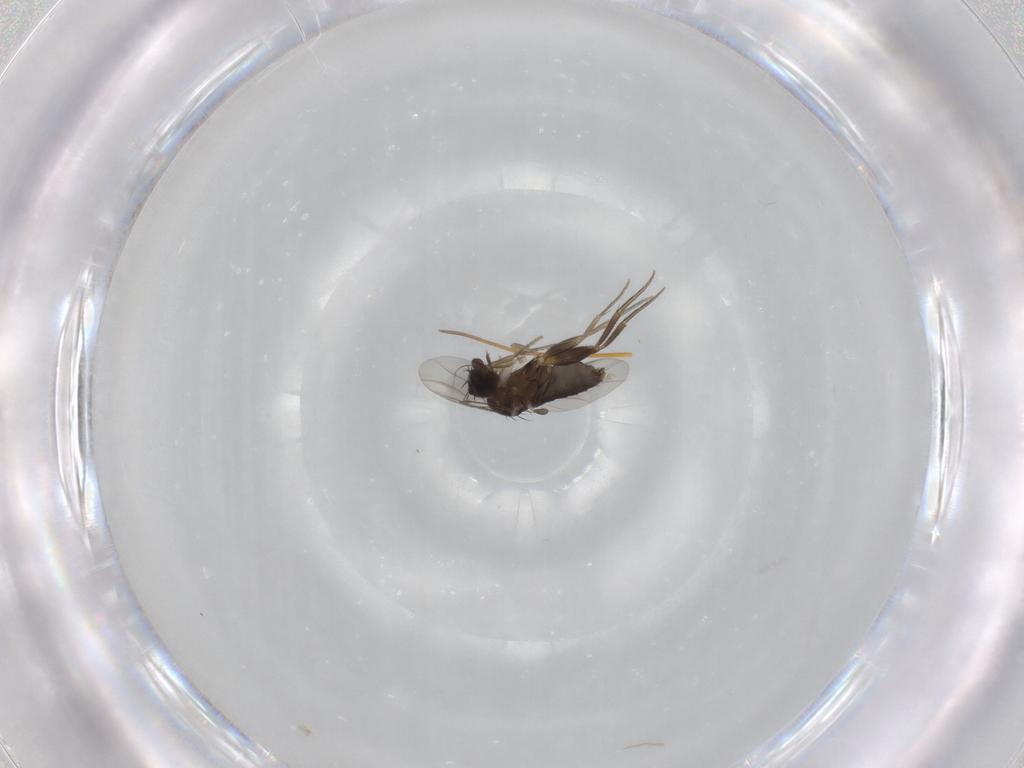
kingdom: Animalia
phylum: Arthropoda
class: Insecta
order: Diptera
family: Phoridae
